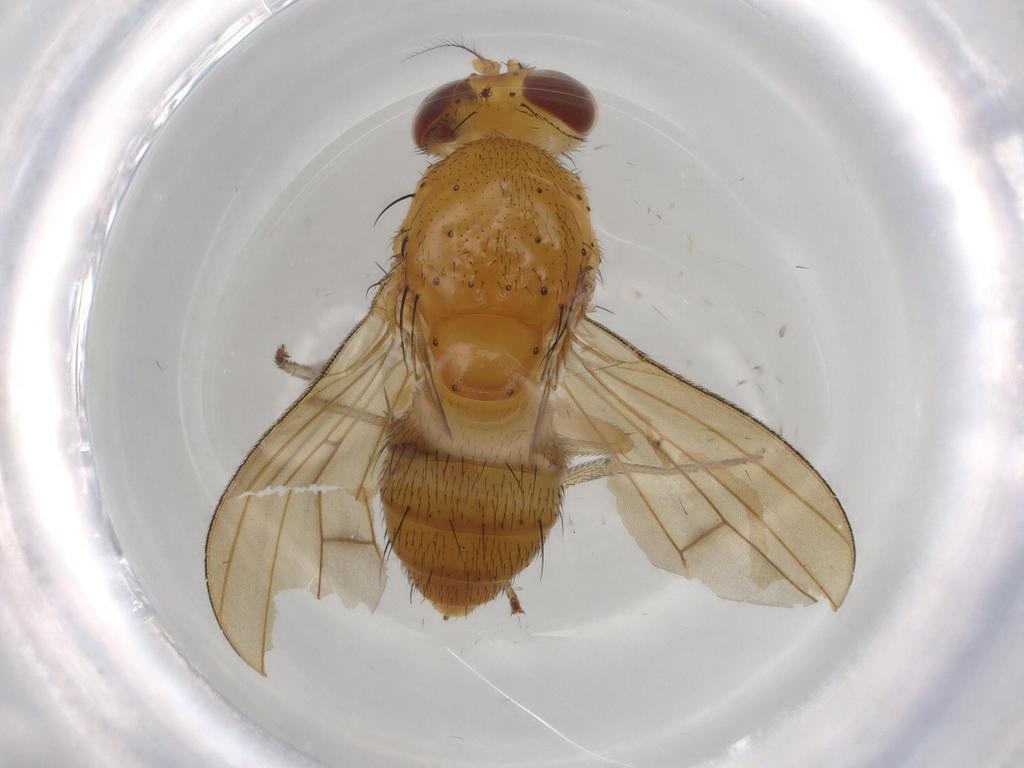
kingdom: Animalia
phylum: Arthropoda
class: Insecta
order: Diptera
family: Lauxaniidae
